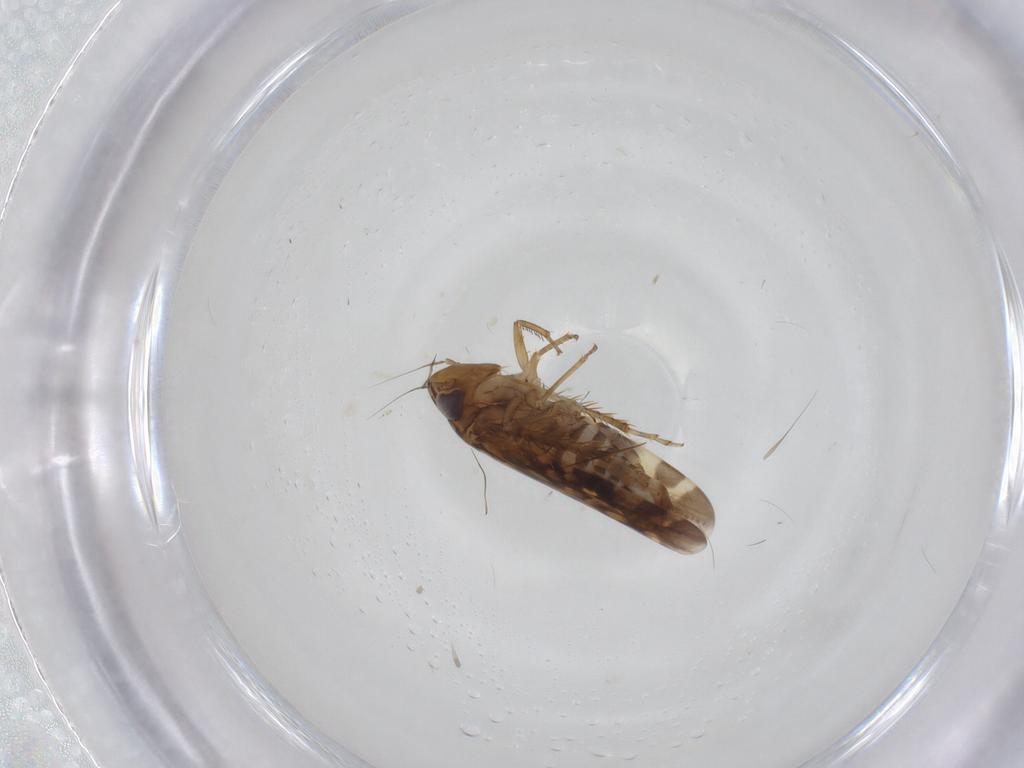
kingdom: Animalia
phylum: Arthropoda
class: Insecta
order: Hemiptera
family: Cicadellidae
